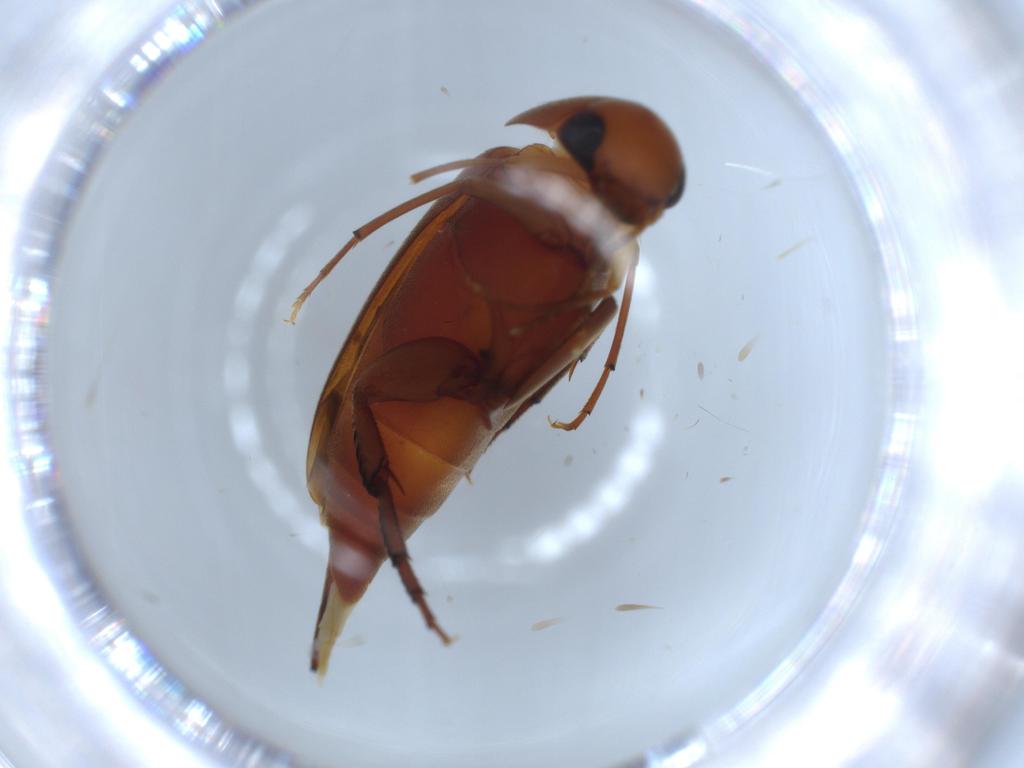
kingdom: Animalia
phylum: Arthropoda
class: Insecta
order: Coleoptera
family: Mordellidae
